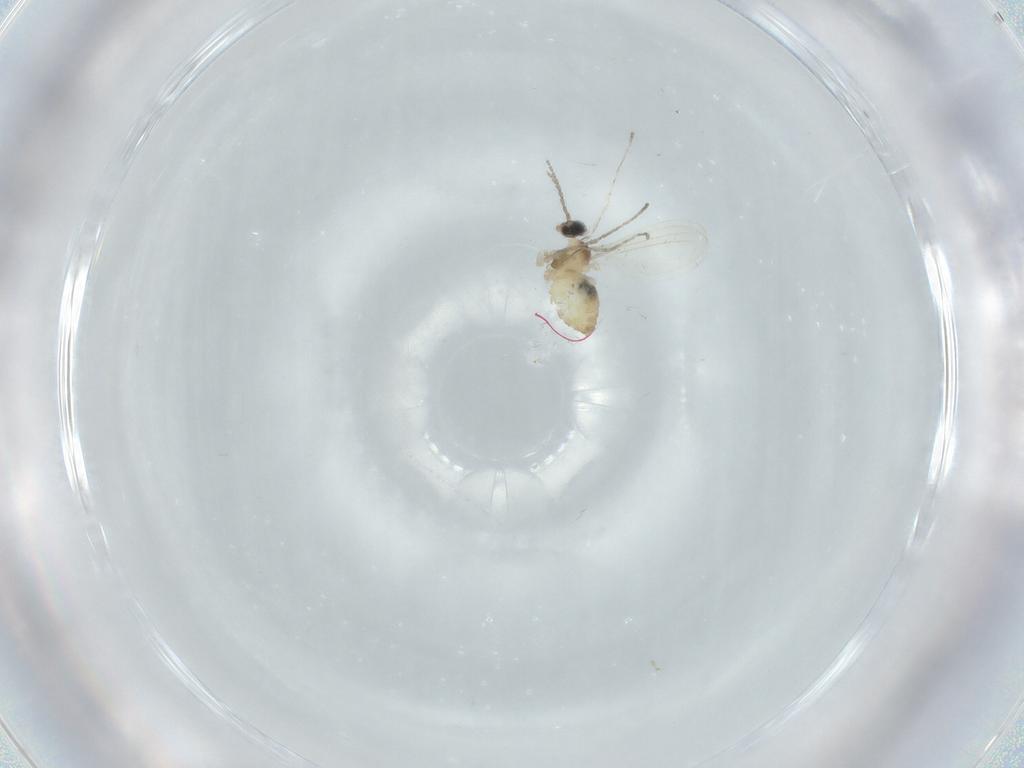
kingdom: Animalia
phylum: Arthropoda
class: Insecta
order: Diptera
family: Cecidomyiidae
